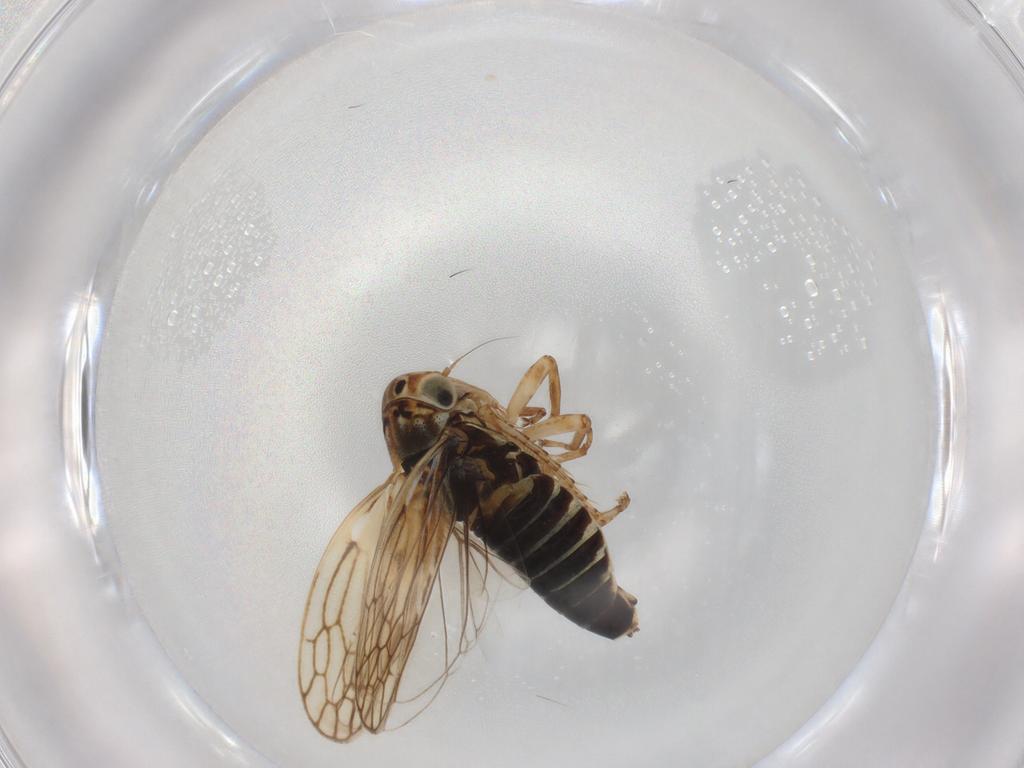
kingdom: Animalia
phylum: Arthropoda
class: Insecta
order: Hemiptera
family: Cicadellidae
